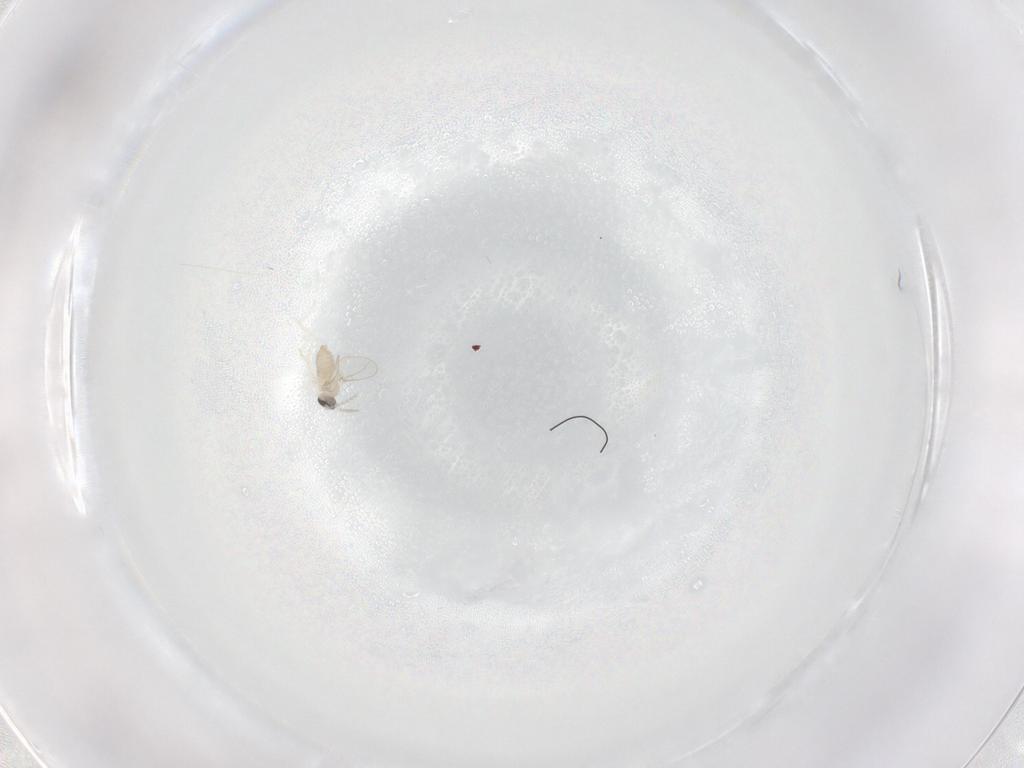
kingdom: Animalia
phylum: Arthropoda
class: Insecta
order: Diptera
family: Cecidomyiidae
